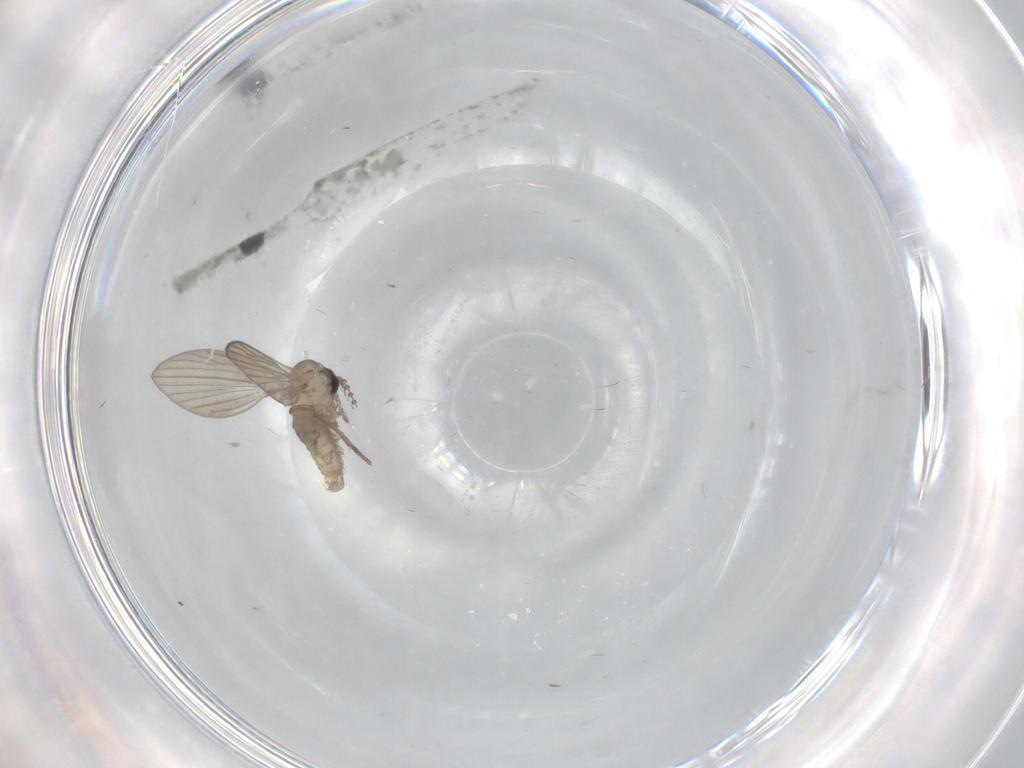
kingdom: Animalia
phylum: Arthropoda
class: Insecta
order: Diptera
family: Psychodidae
